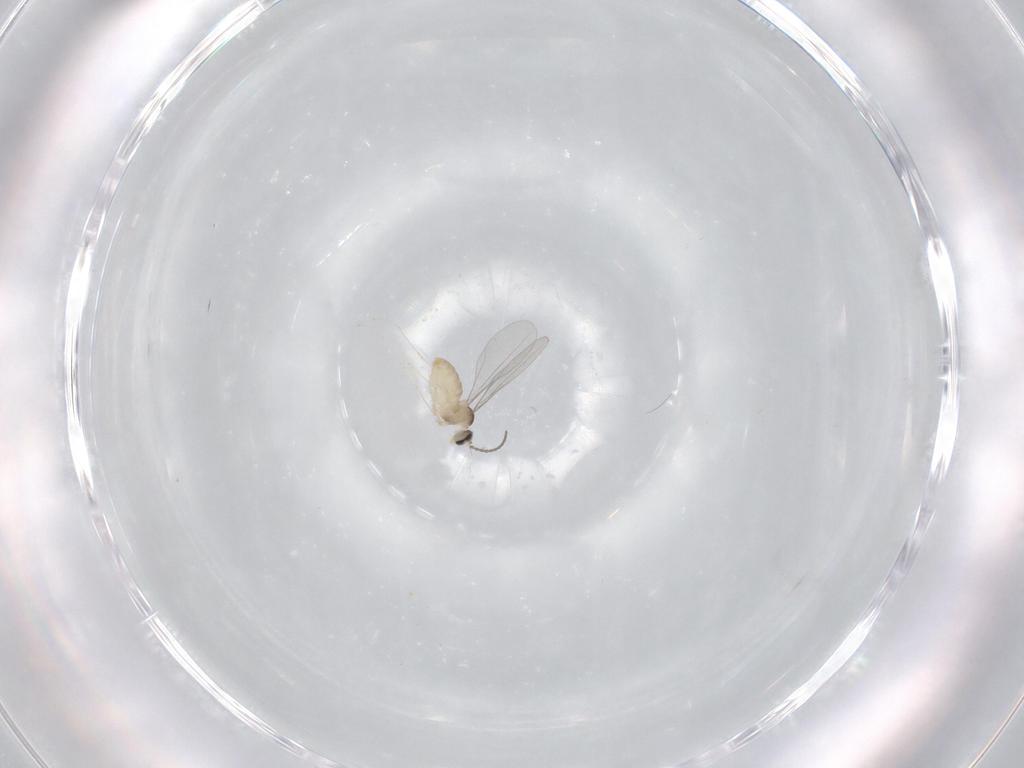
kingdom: Animalia
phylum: Arthropoda
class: Insecta
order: Diptera
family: Cecidomyiidae
